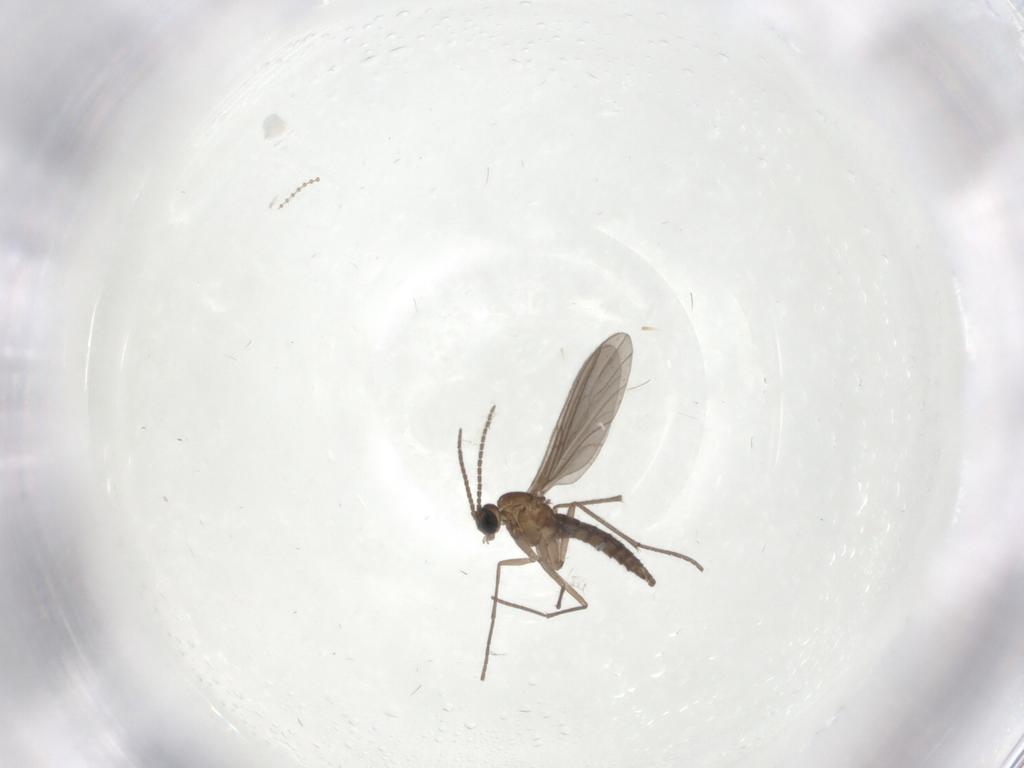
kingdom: Animalia
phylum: Arthropoda
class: Insecta
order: Diptera
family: Sciaridae
